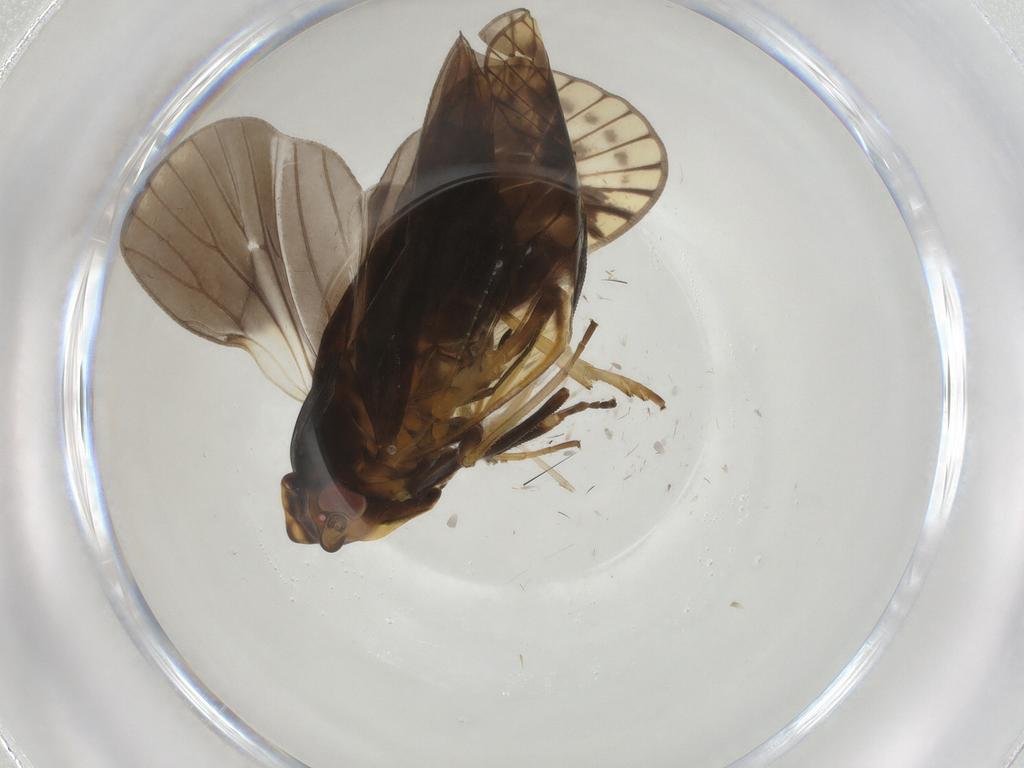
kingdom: Animalia
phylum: Arthropoda
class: Insecta
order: Hemiptera
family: Cixiidae
